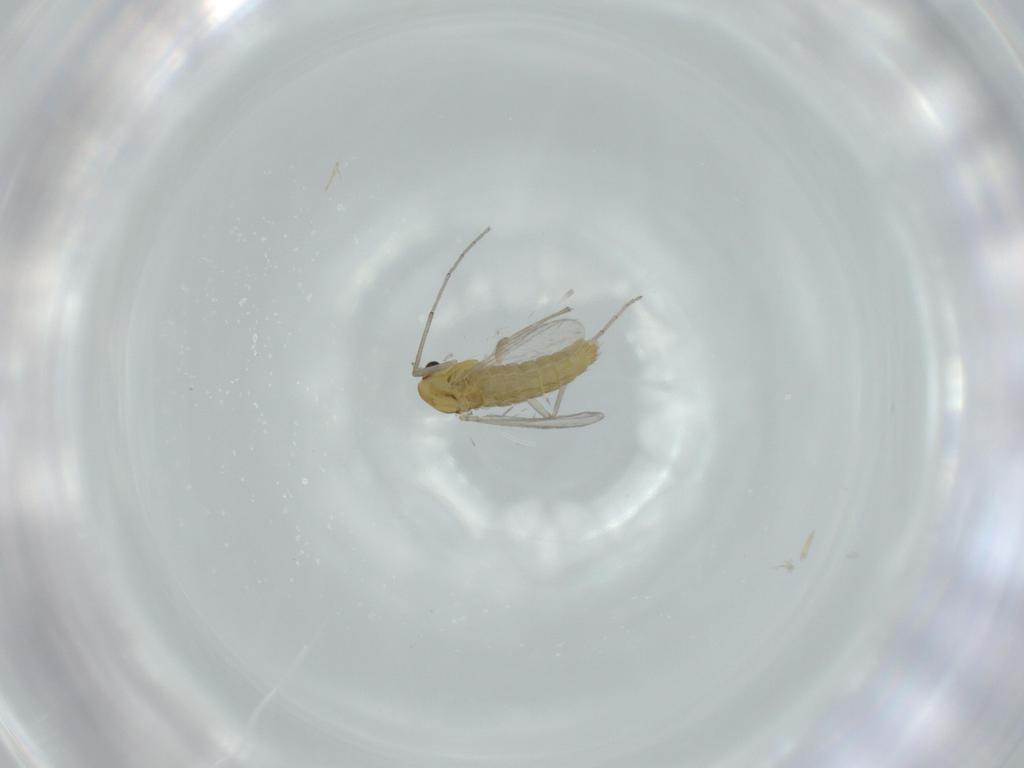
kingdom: Animalia
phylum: Arthropoda
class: Insecta
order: Diptera
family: Chironomidae
